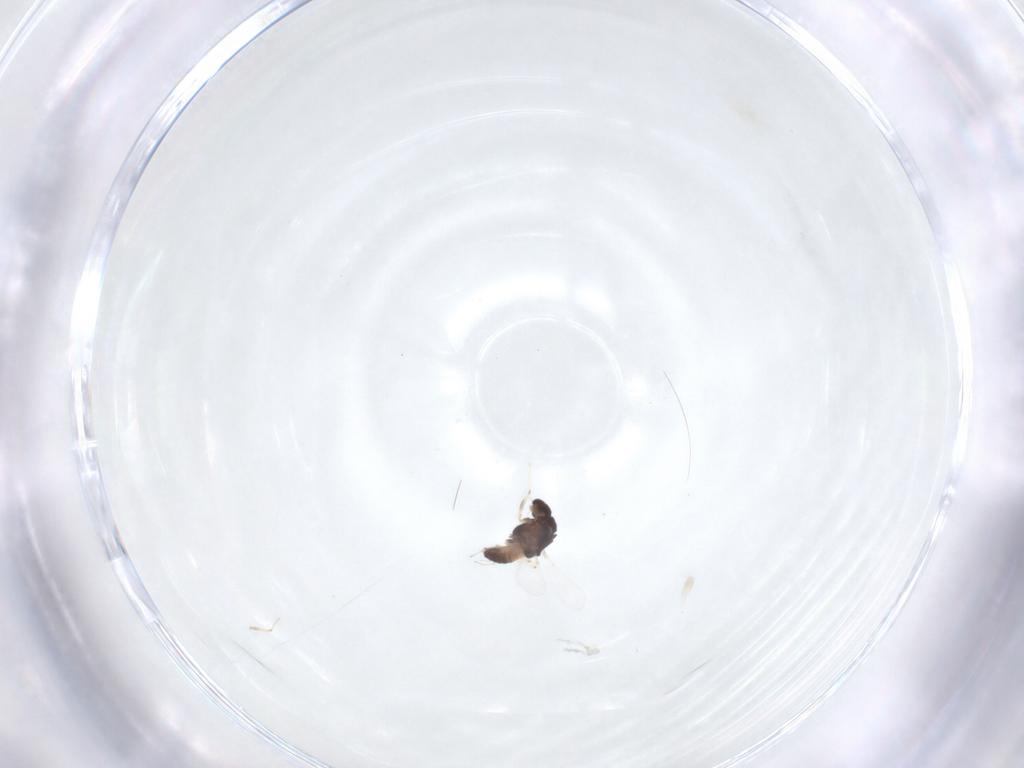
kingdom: Animalia
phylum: Arthropoda
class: Insecta
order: Diptera
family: Chironomidae
